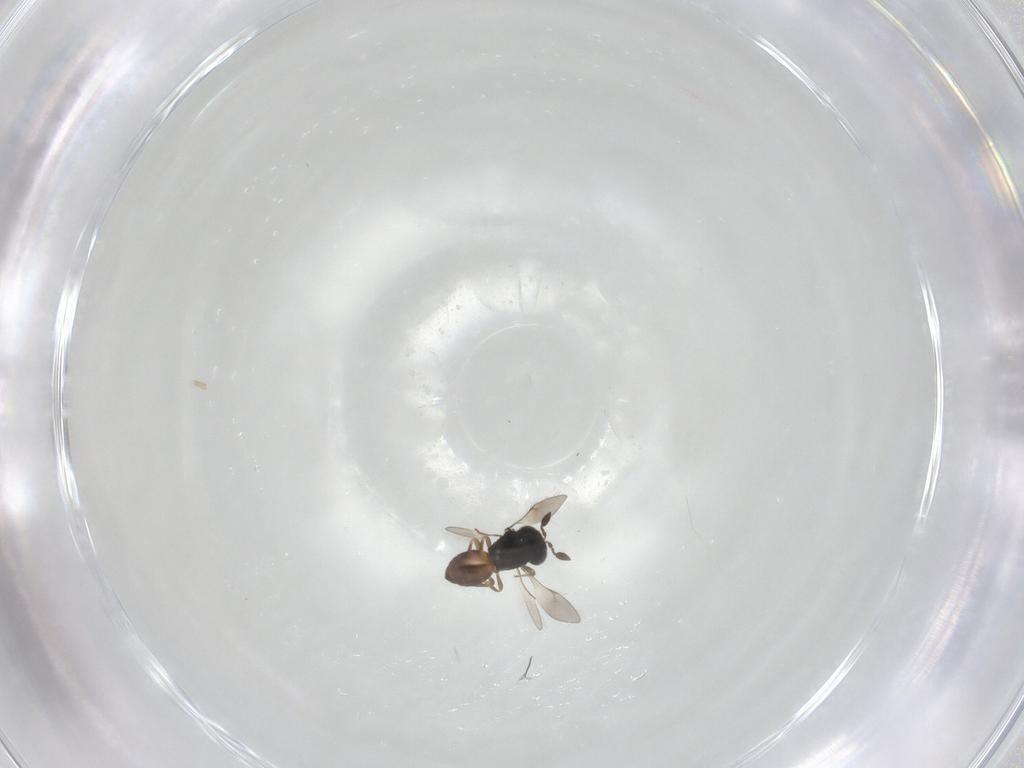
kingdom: Animalia
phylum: Arthropoda
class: Insecta
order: Hymenoptera
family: Scelionidae
